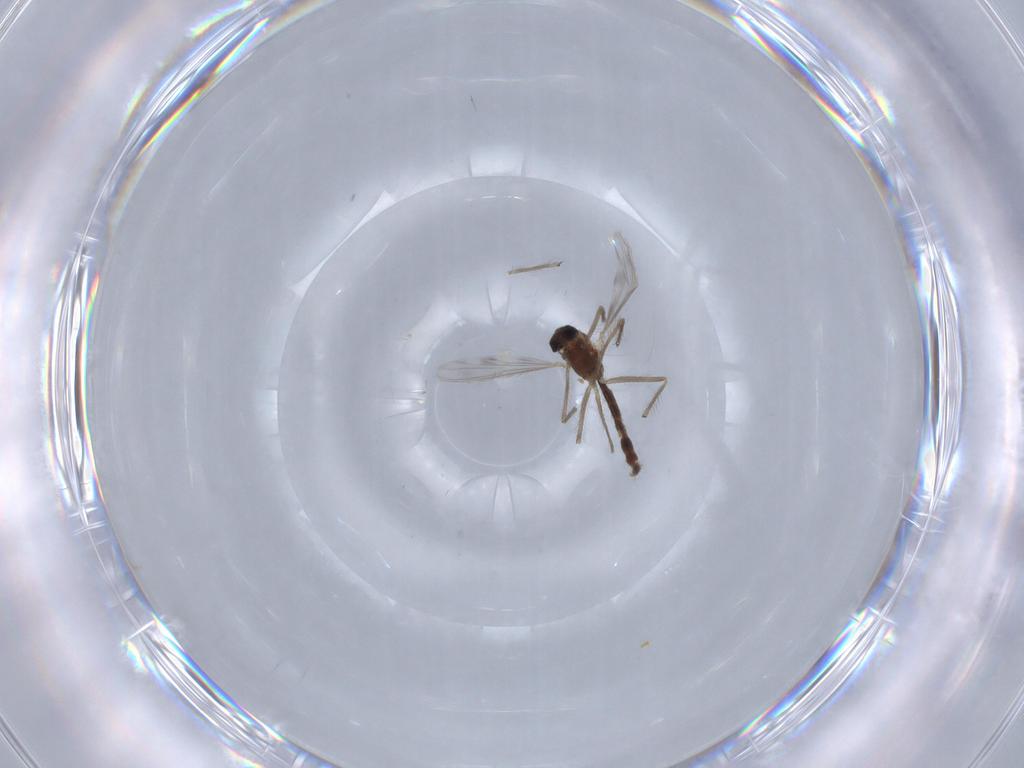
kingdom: Animalia
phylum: Arthropoda
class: Insecta
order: Diptera
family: Chironomidae
